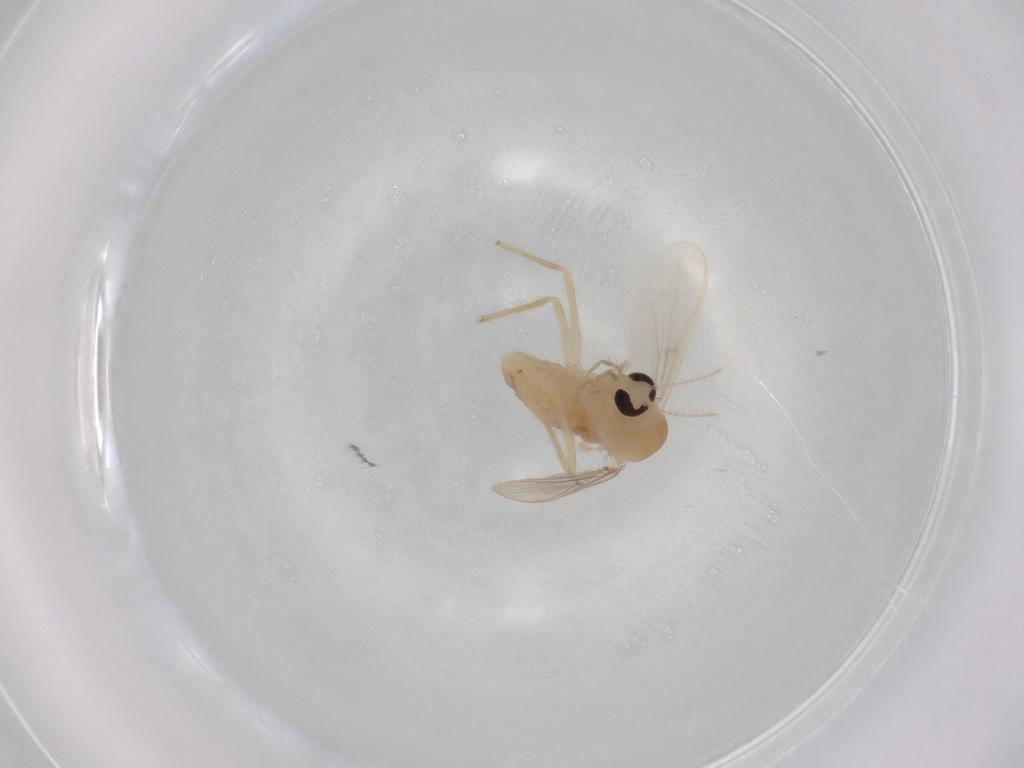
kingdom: Animalia
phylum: Arthropoda
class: Insecta
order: Diptera
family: Chironomidae
